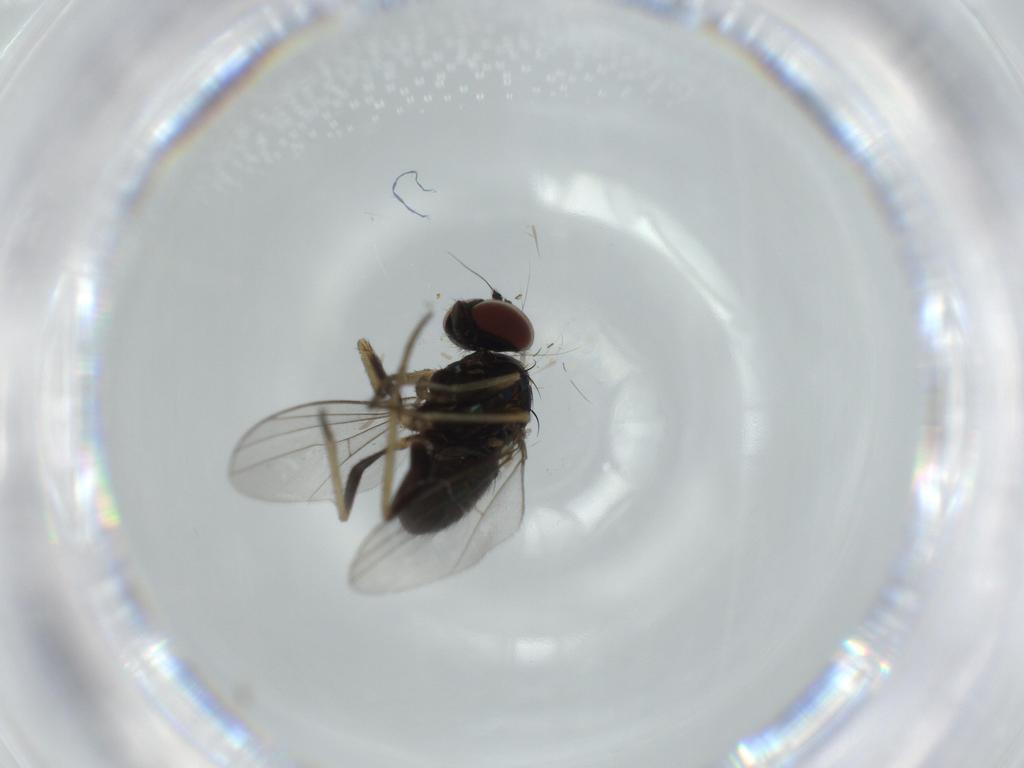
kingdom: Animalia
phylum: Arthropoda
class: Insecta
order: Diptera
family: Dolichopodidae
